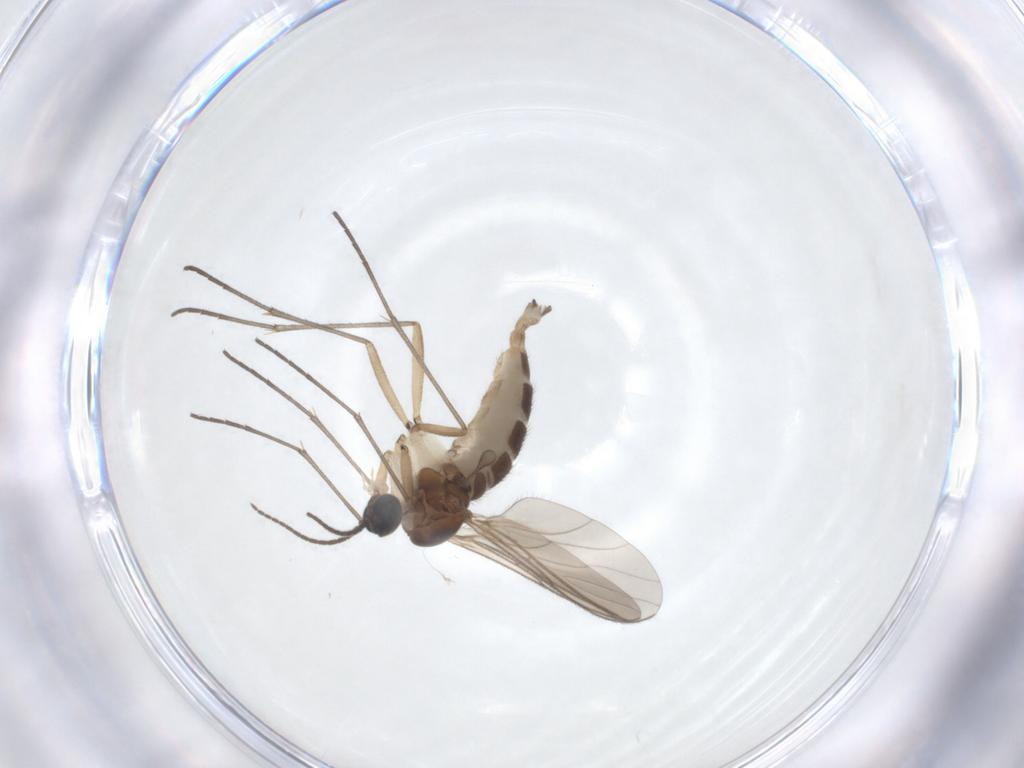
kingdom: Animalia
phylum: Arthropoda
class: Insecta
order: Diptera
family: Sciaridae
